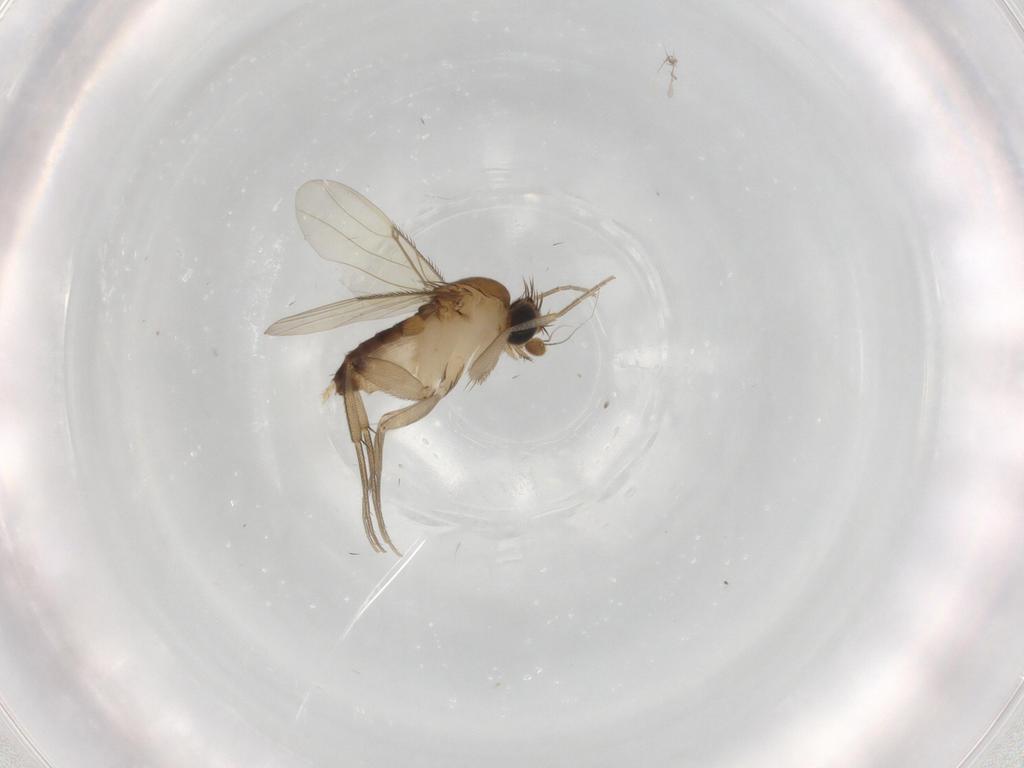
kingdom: Animalia
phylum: Arthropoda
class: Insecta
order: Diptera
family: Phoridae
